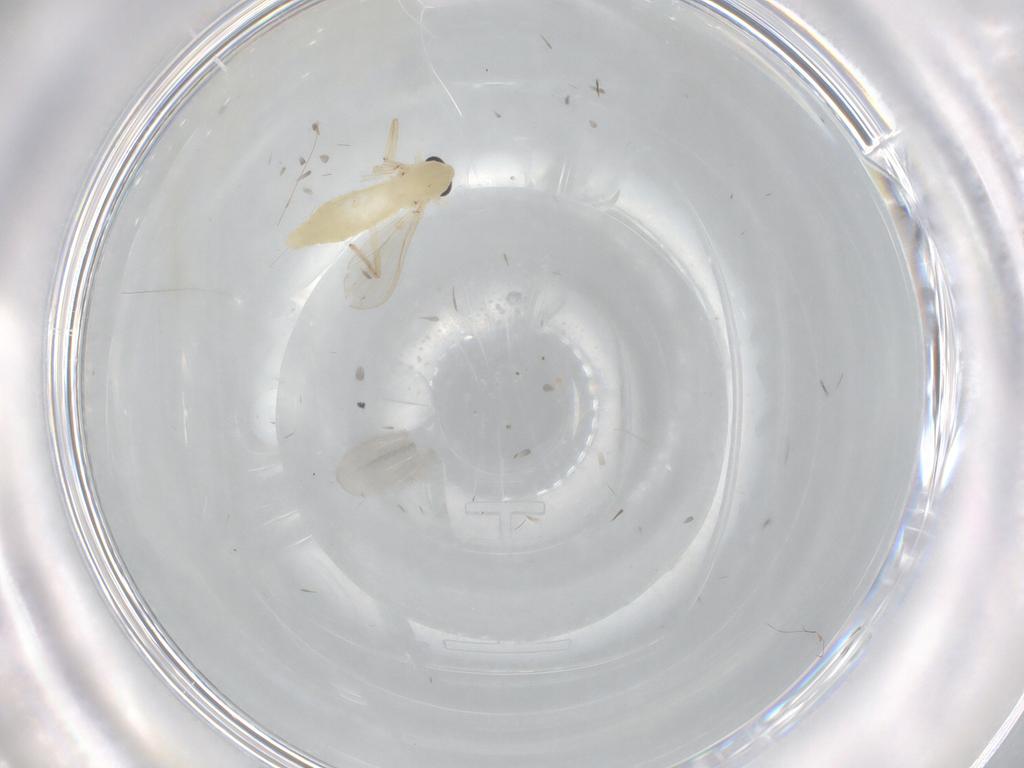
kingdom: Animalia
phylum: Arthropoda
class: Insecta
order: Diptera
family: Chironomidae
